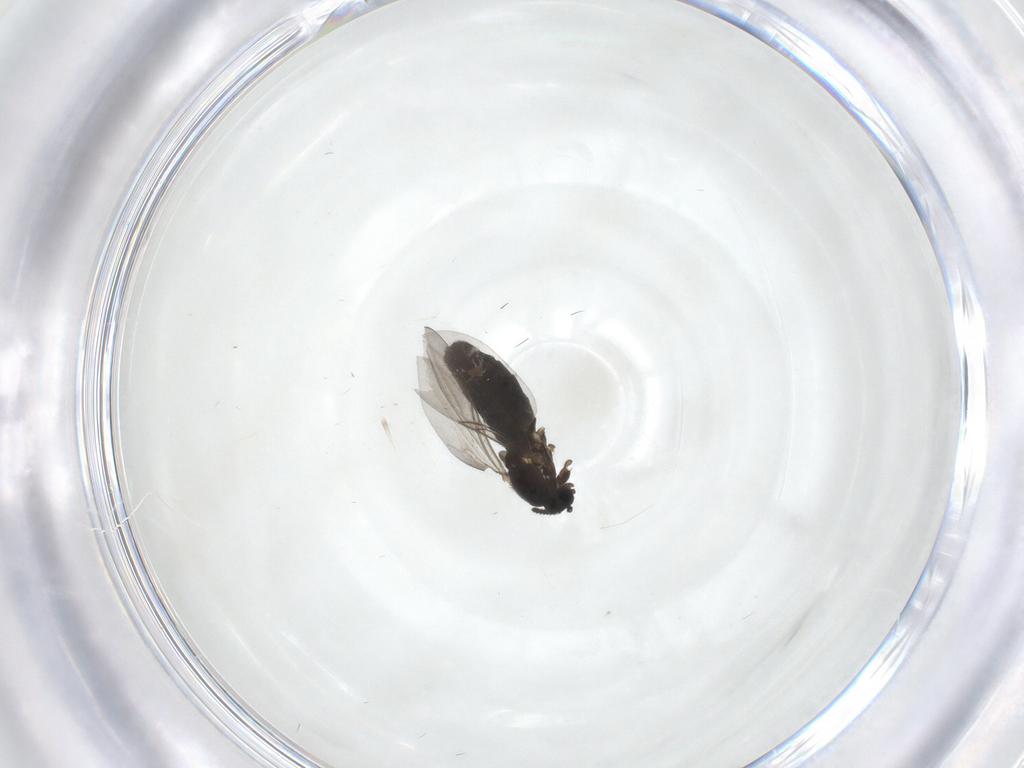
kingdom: Animalia
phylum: Arthropoda
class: Insecta
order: Diptera
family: Scatopsidae
